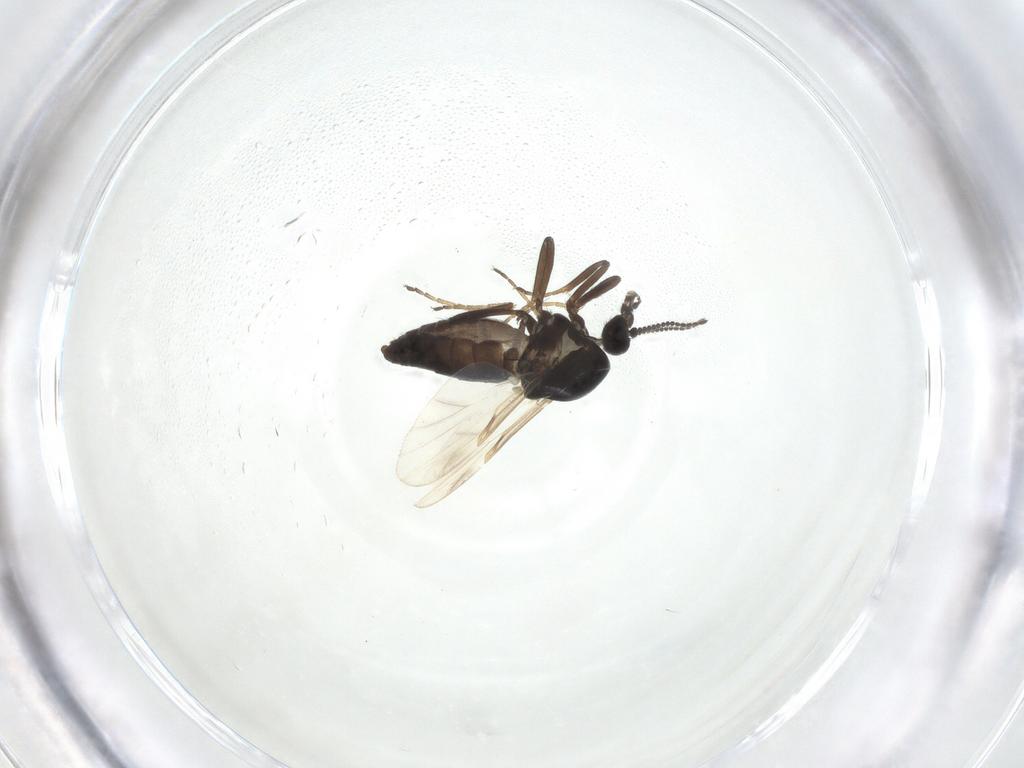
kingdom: Animalia
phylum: Arthropoda
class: Insecta
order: Diptera
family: Ceratopogonidae
